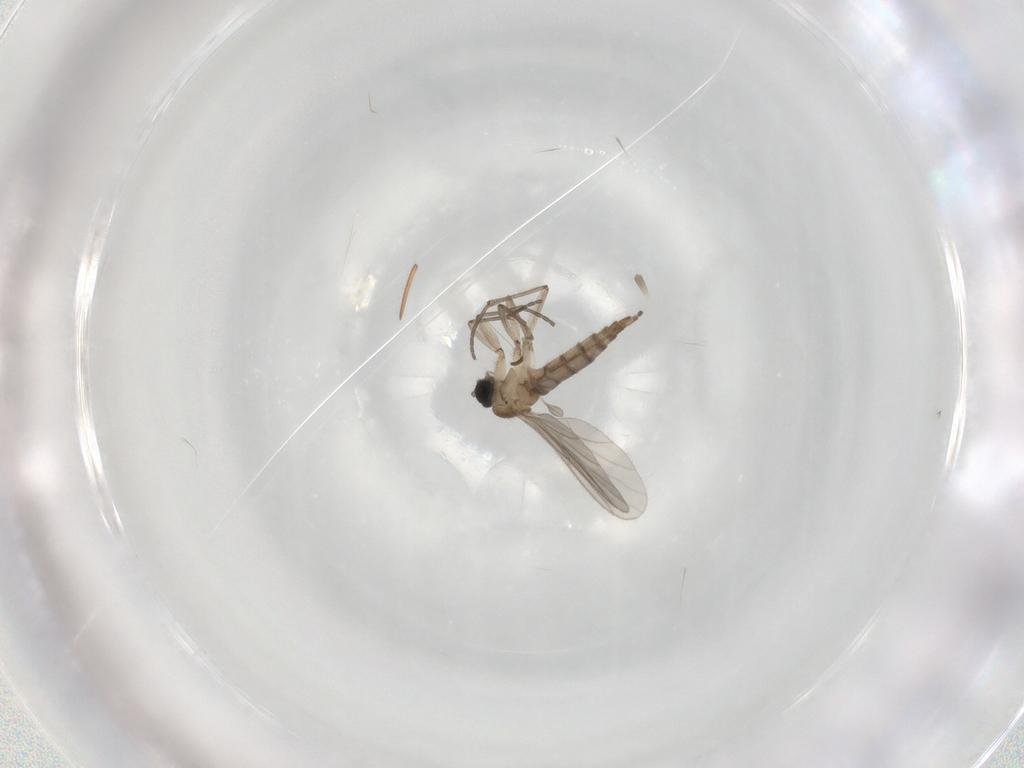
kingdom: Animalia
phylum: Arthropoda
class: Insecta
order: Diptera
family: Sciaridae
